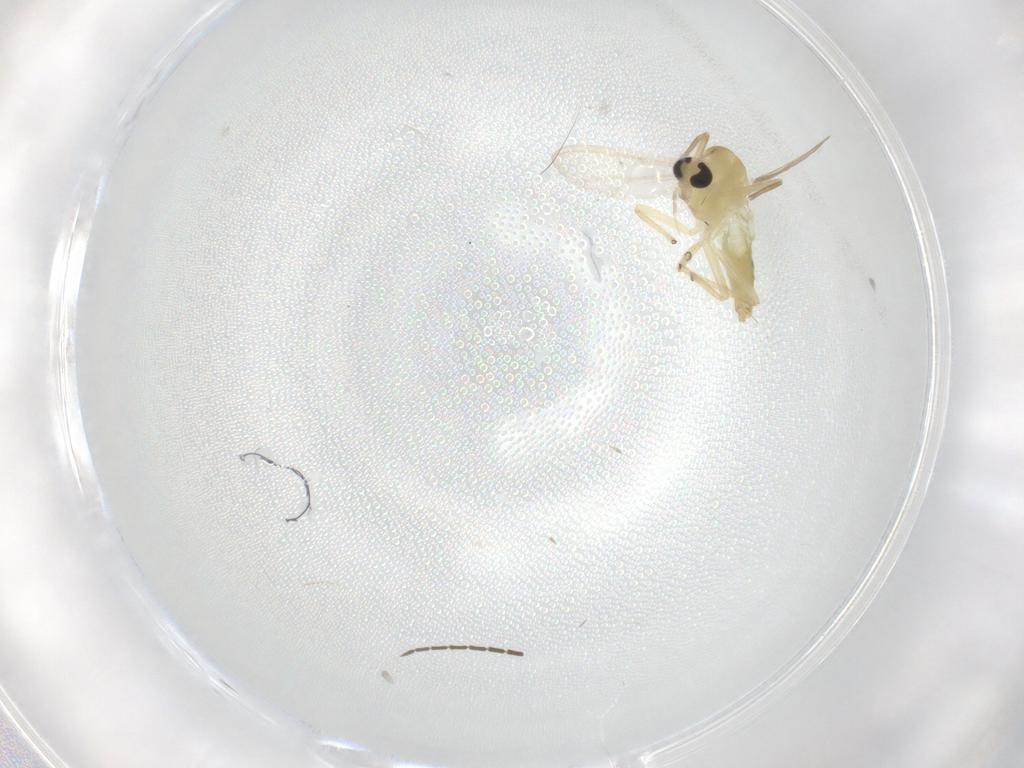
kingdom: Animalia
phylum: Arthropoda
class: Insecta
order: Diptera
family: Chironomidae
